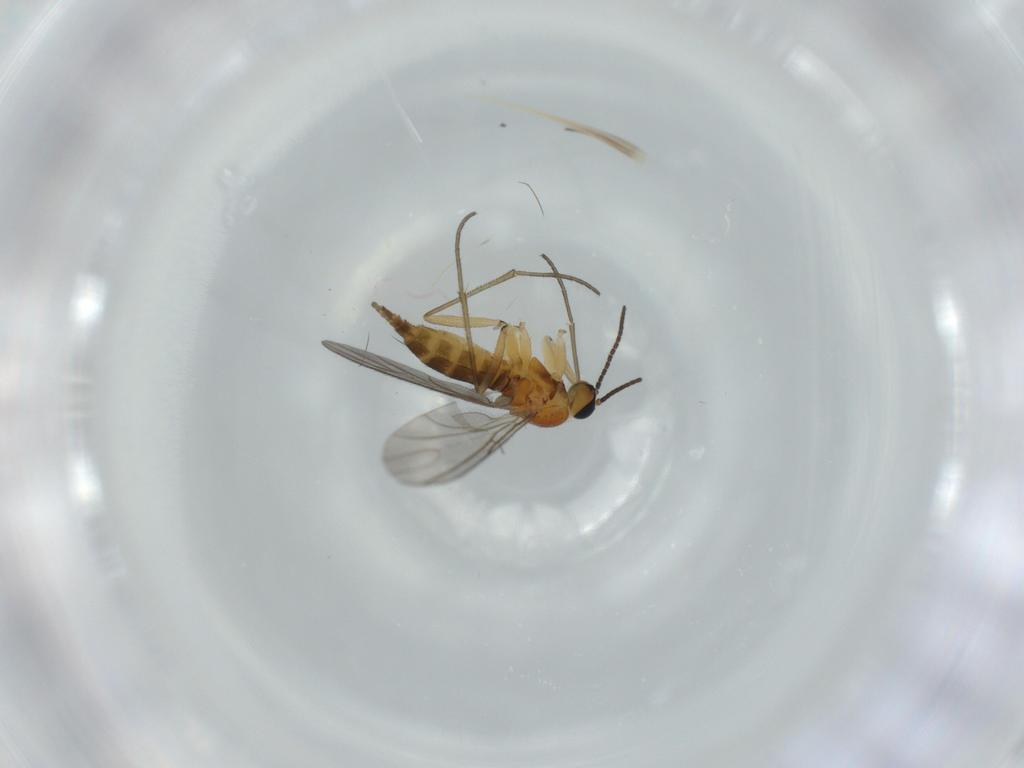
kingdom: Animalia
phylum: Arthropoda
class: Insecta
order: Diptera
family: Sciaridae
